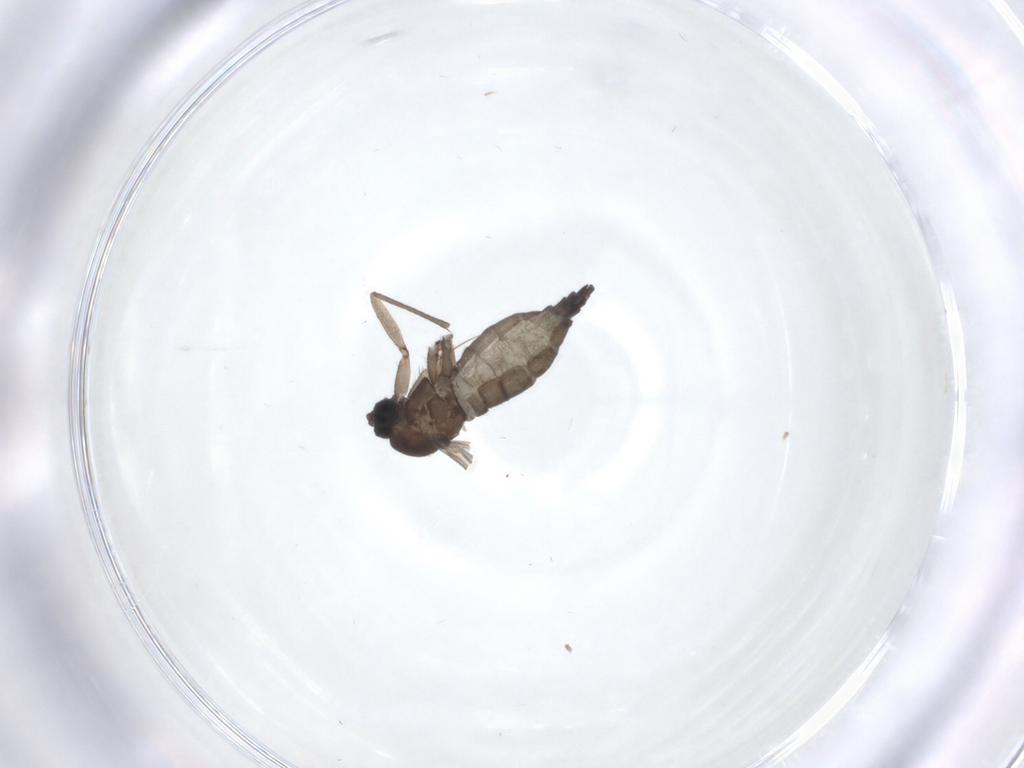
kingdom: Animalia
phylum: Arthropoda
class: Insecta
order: Diptera
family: Sciaridae
